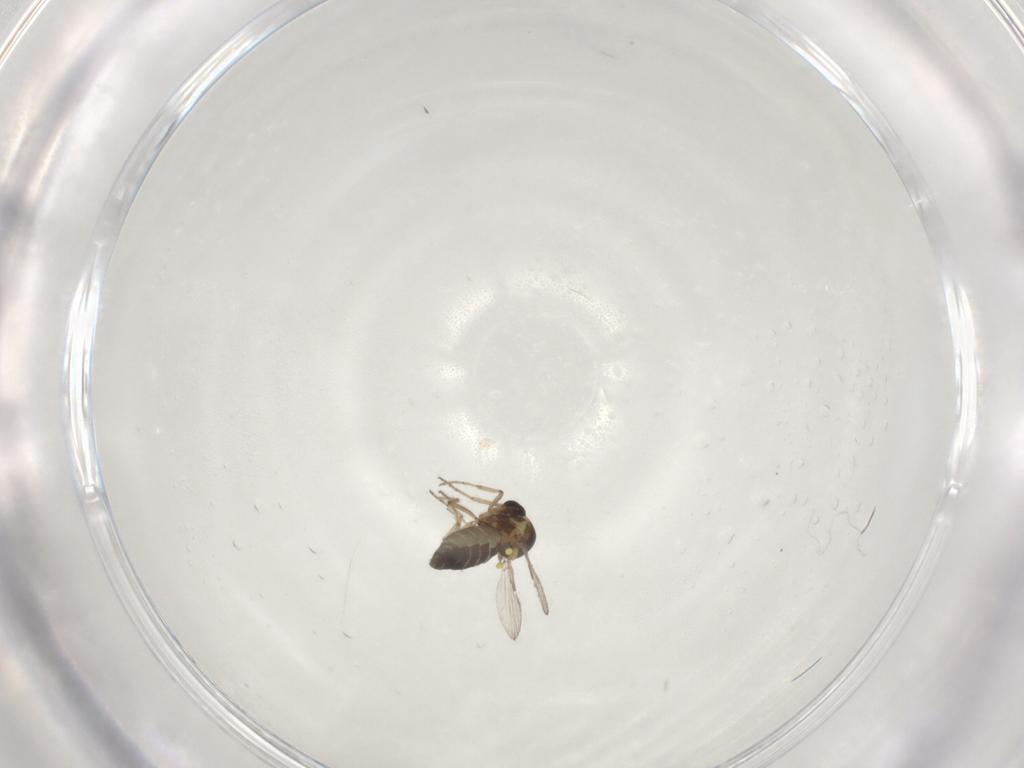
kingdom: Animalia
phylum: Arthropoda
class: Insecta
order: Diptera
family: Ceratopogonidae
